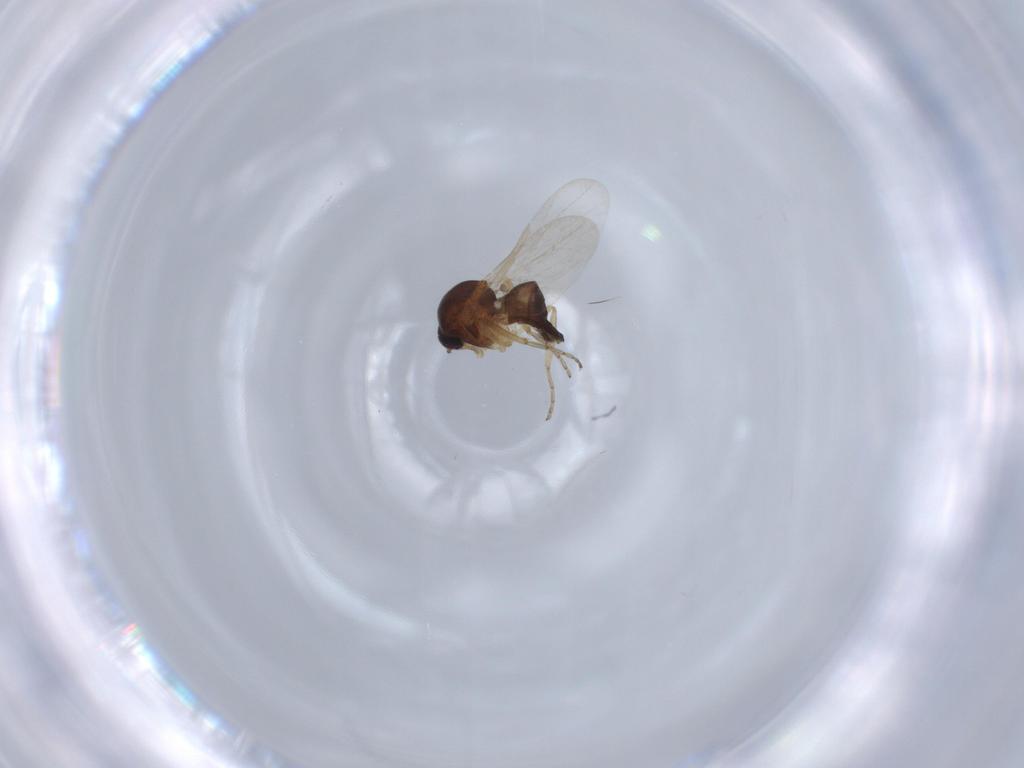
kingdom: Animalia
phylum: Arthropoda
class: Insecta
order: Diptera
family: Ceratopogonidae
